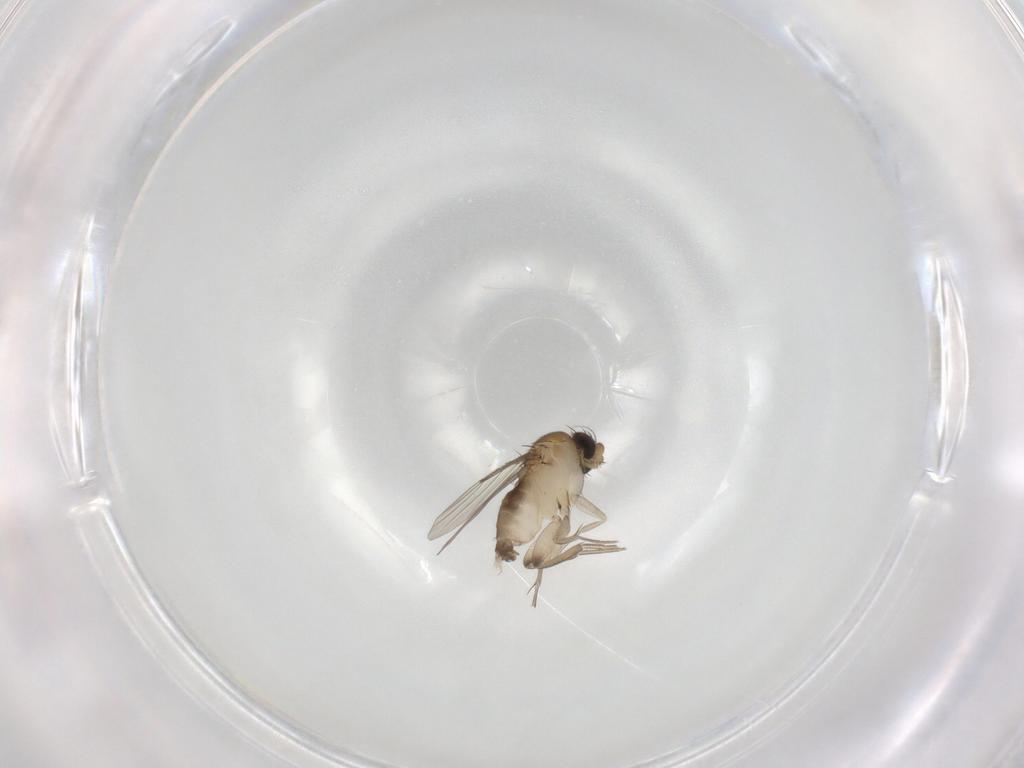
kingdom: Animalia
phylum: Arthropoda
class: Insecta
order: Diptera
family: Phoridae
